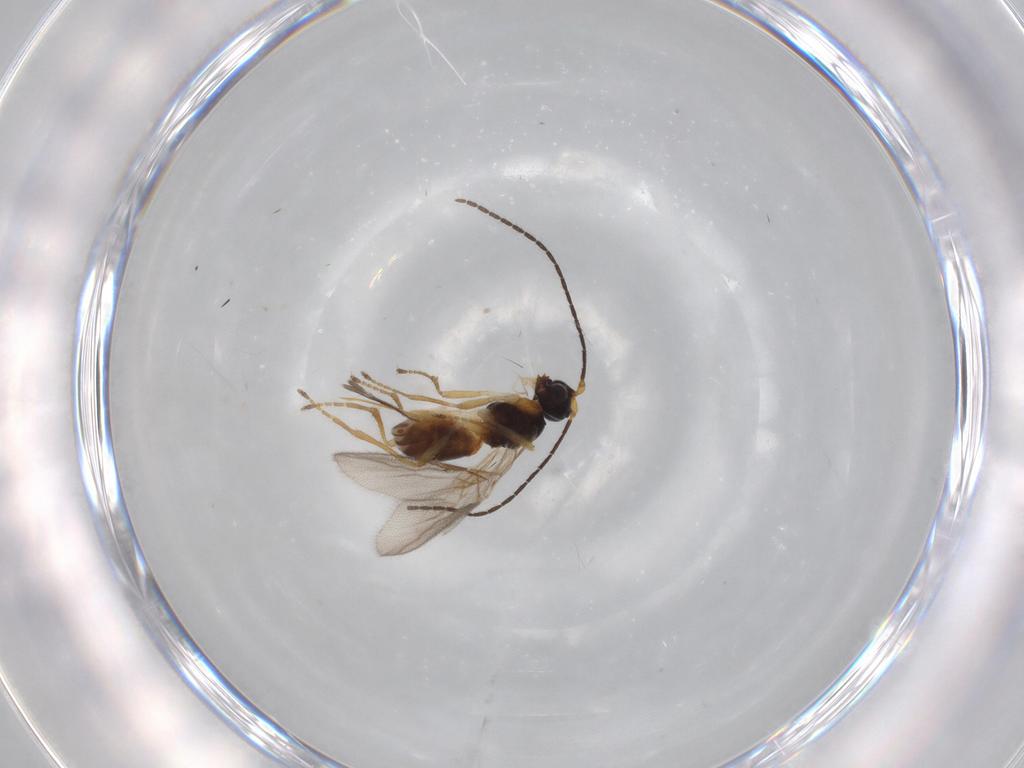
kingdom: Animalia
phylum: Arthropoda
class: Insecta
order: Hymenoptera
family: Braconidae
